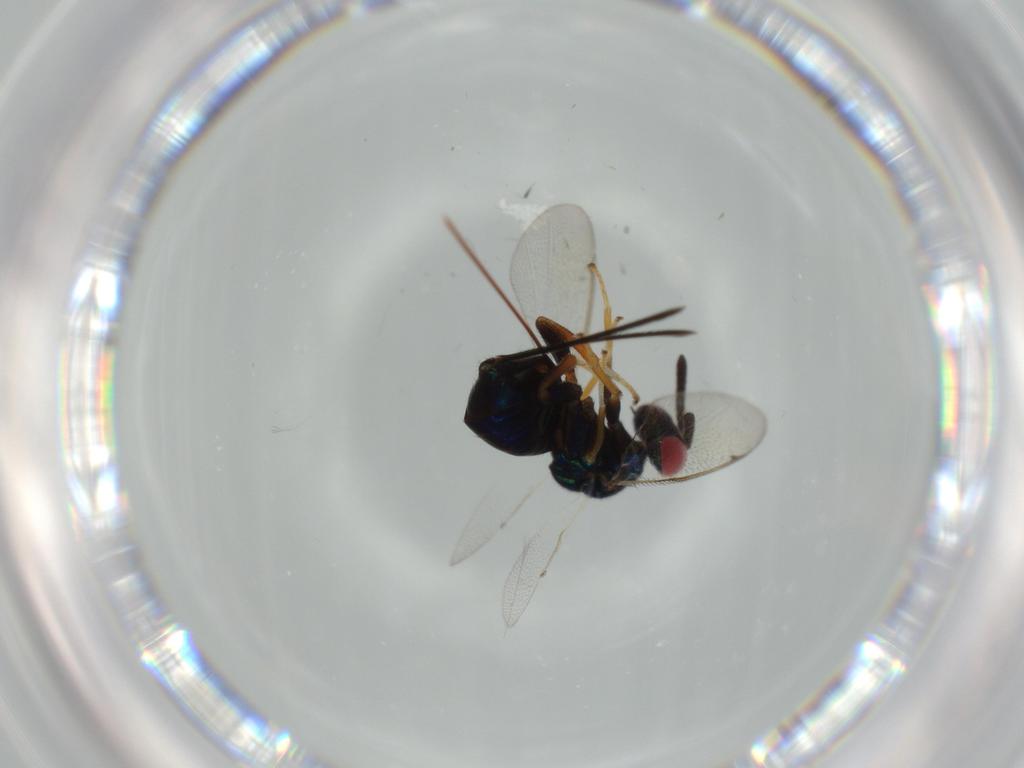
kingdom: Animalia
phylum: Arthropoda
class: Insecta
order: Hymenoptera
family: Torymidae
